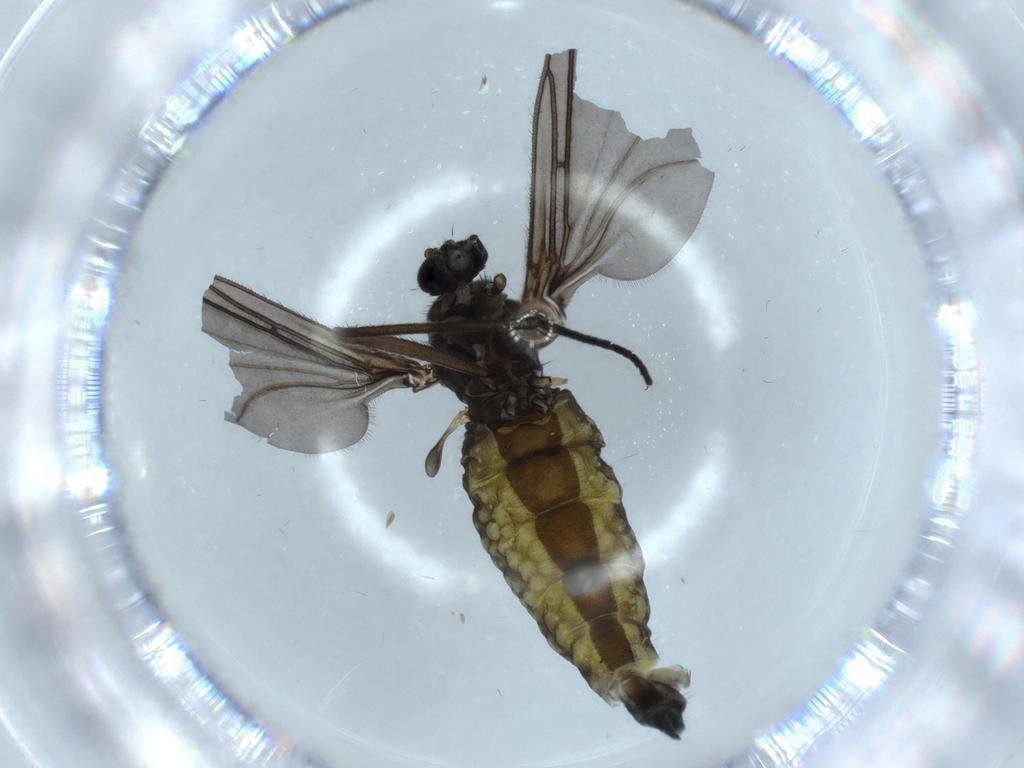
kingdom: Animalia
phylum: Arthropoda
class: Insecta
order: Diptera
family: Sciaridae
